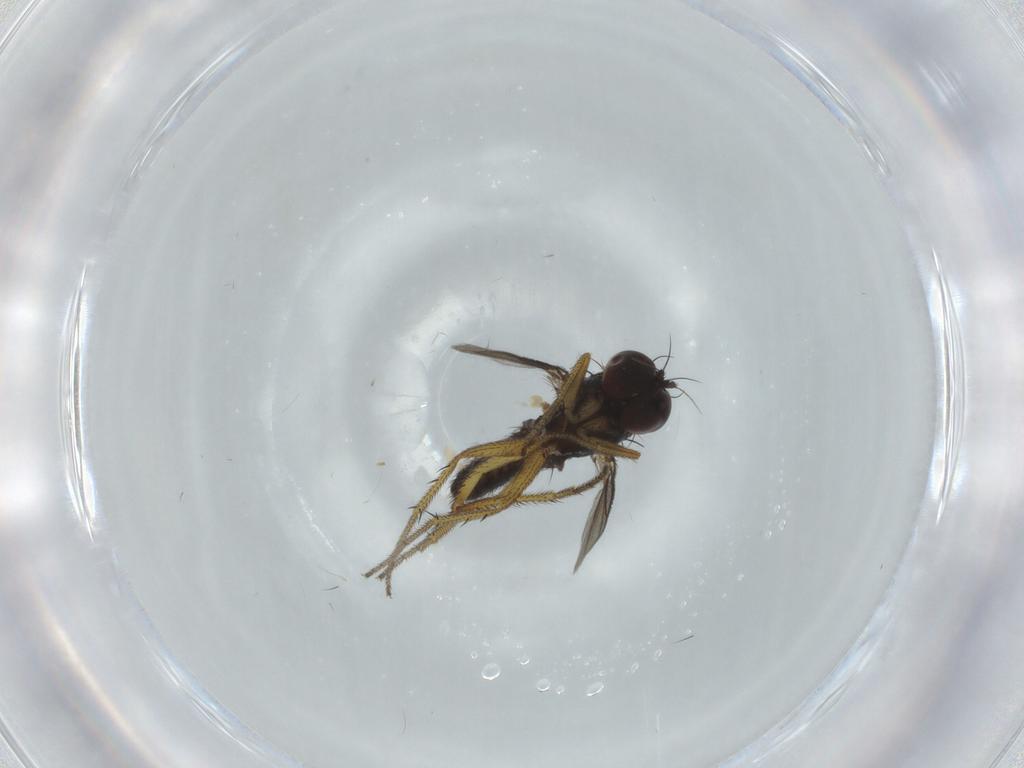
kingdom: Animalia
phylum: Arthropoda
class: Insecta
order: Diptera
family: Dolichopodidae
